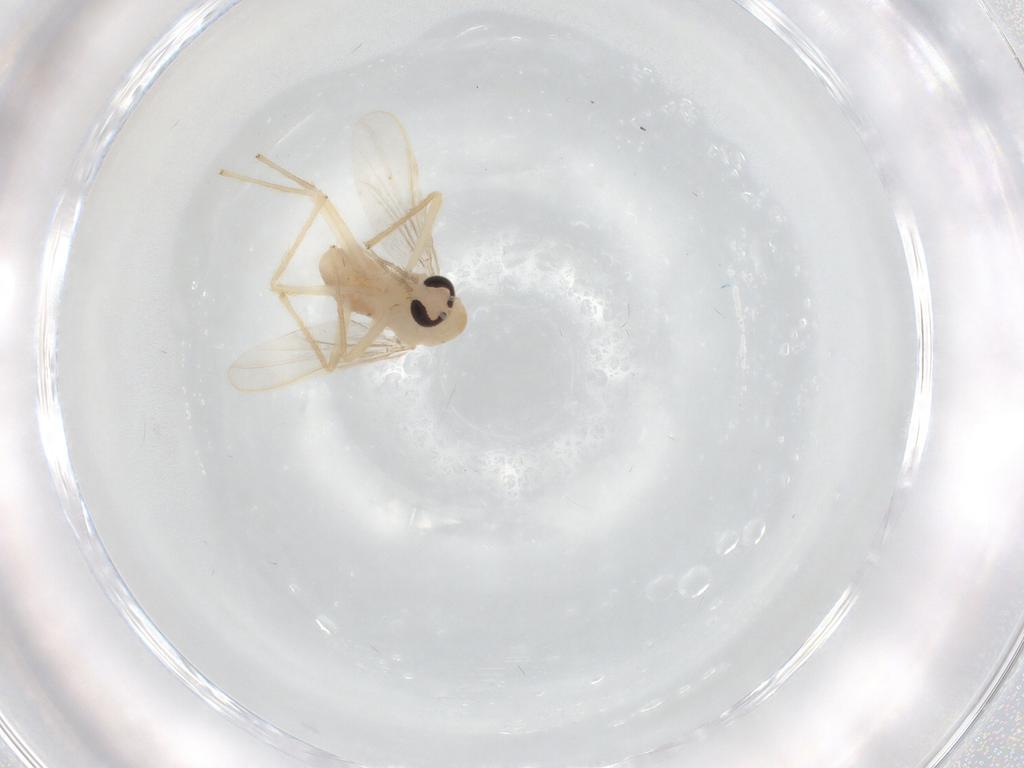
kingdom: Animalia
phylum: Arthropoda
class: Insecta
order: Diptera
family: Chironomidae
